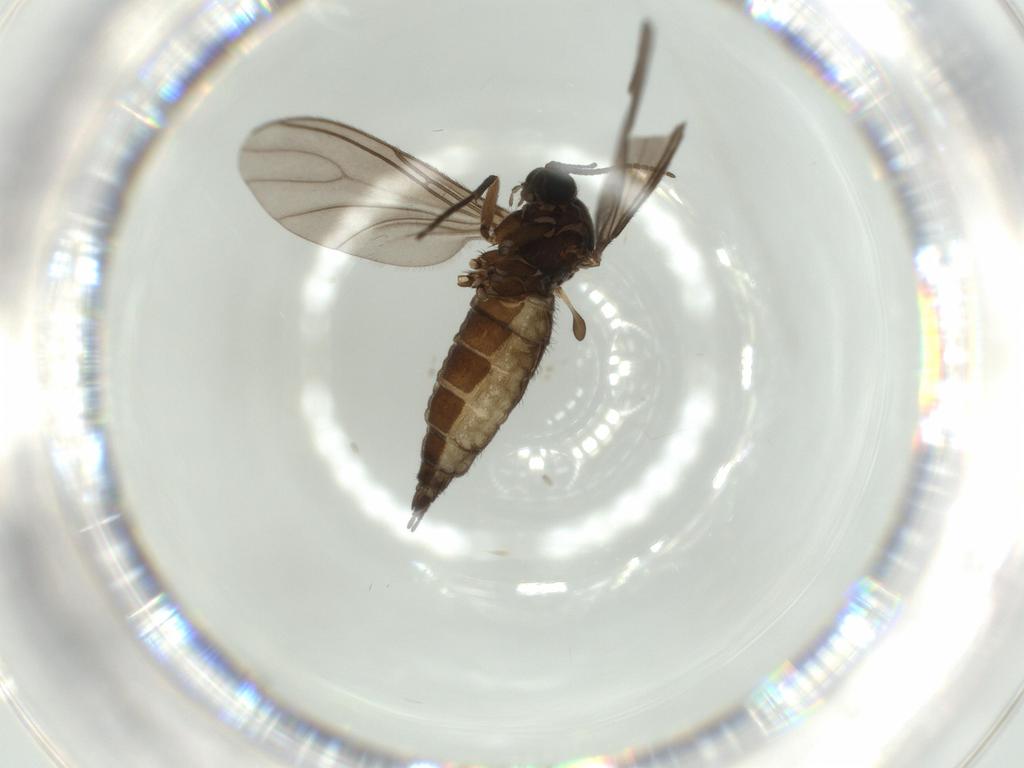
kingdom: Animalia
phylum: Arthropoda
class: Insecta
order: Diptera
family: Sciaridae
